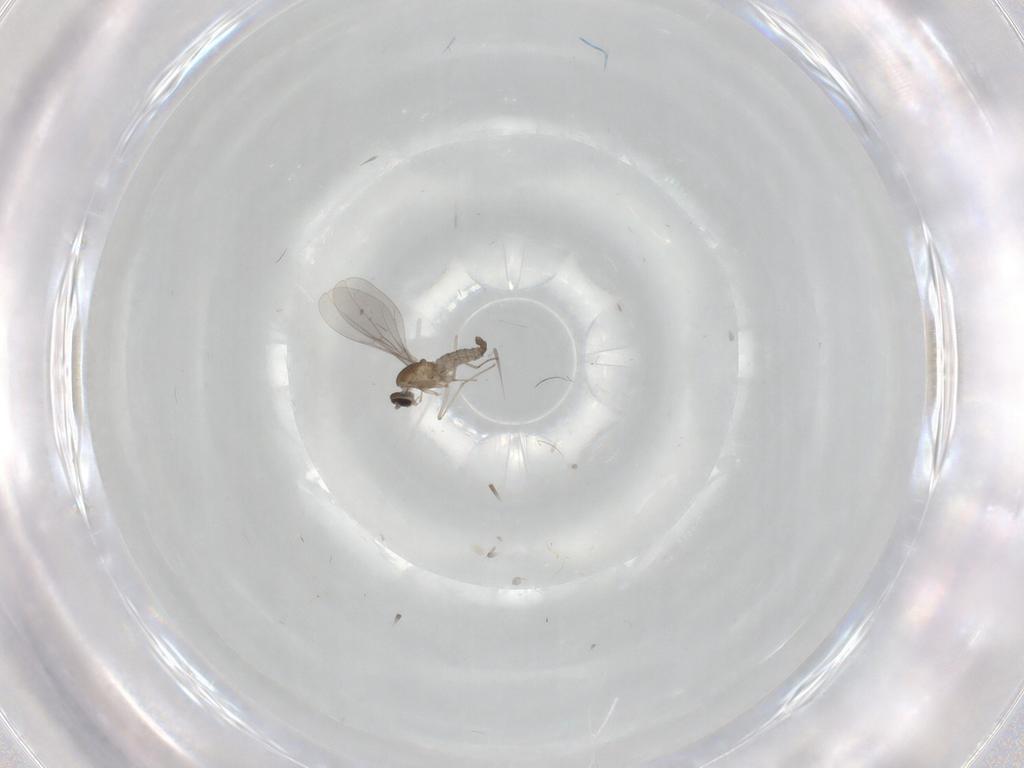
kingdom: Animalia
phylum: Arthropoda
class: Insecta
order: Diptera
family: Cecidomyiidae
